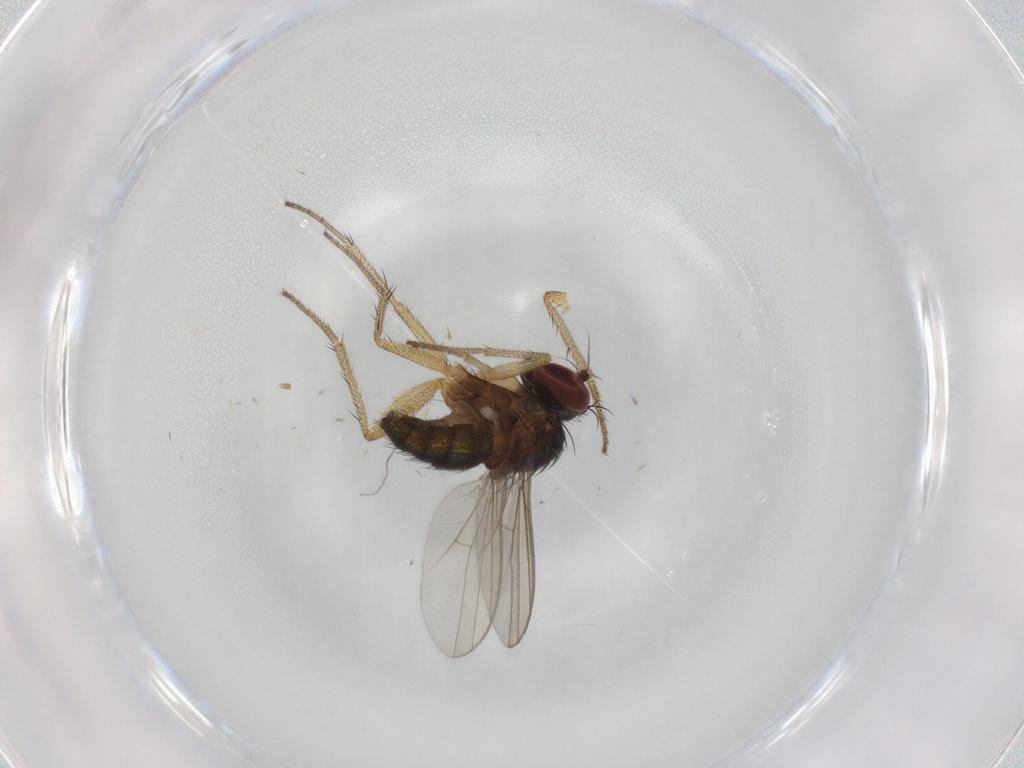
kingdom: Animalia
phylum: Arthropoda
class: Insecta
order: Diptera
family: Dolichopodidae
